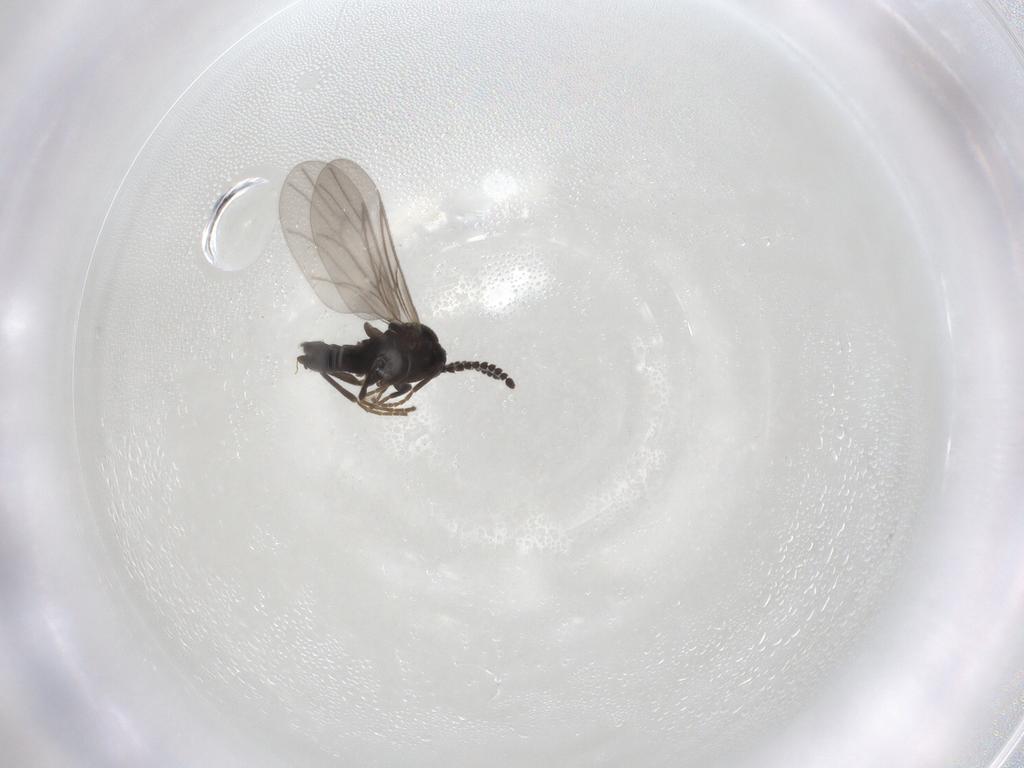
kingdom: Animalia
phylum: Arthropoda
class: Insecta
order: Diptera
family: Scatopsidae
